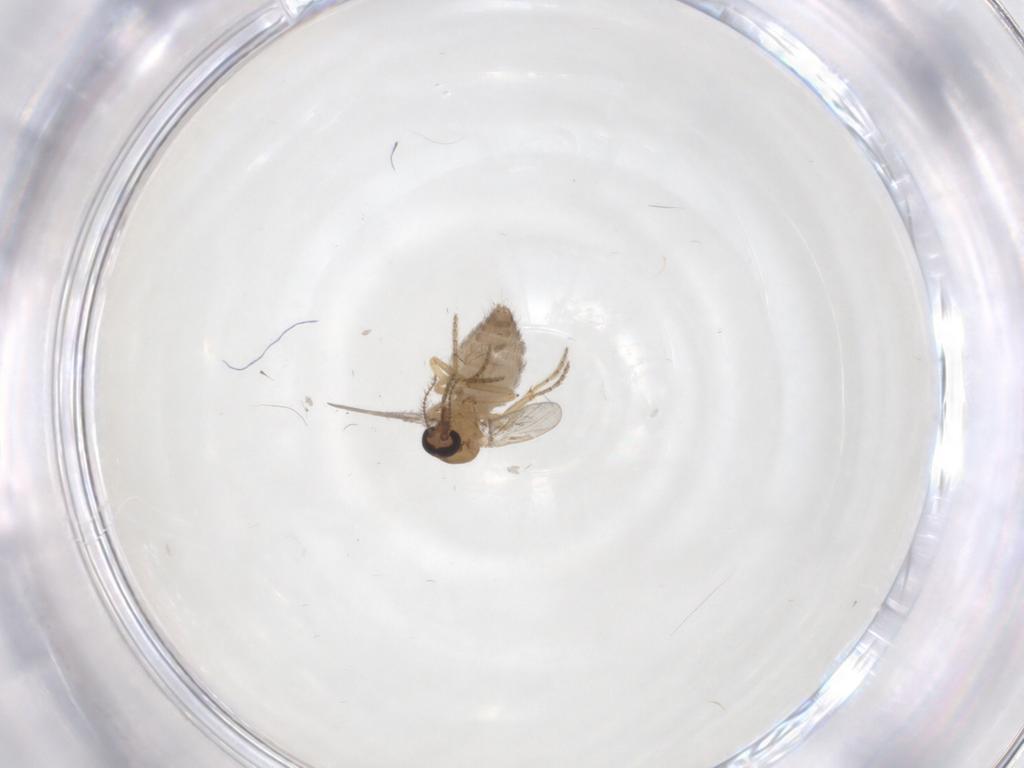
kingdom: Animalia
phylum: Arthropoda
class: Insecta
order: Diptera
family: Ceratopogonidae
